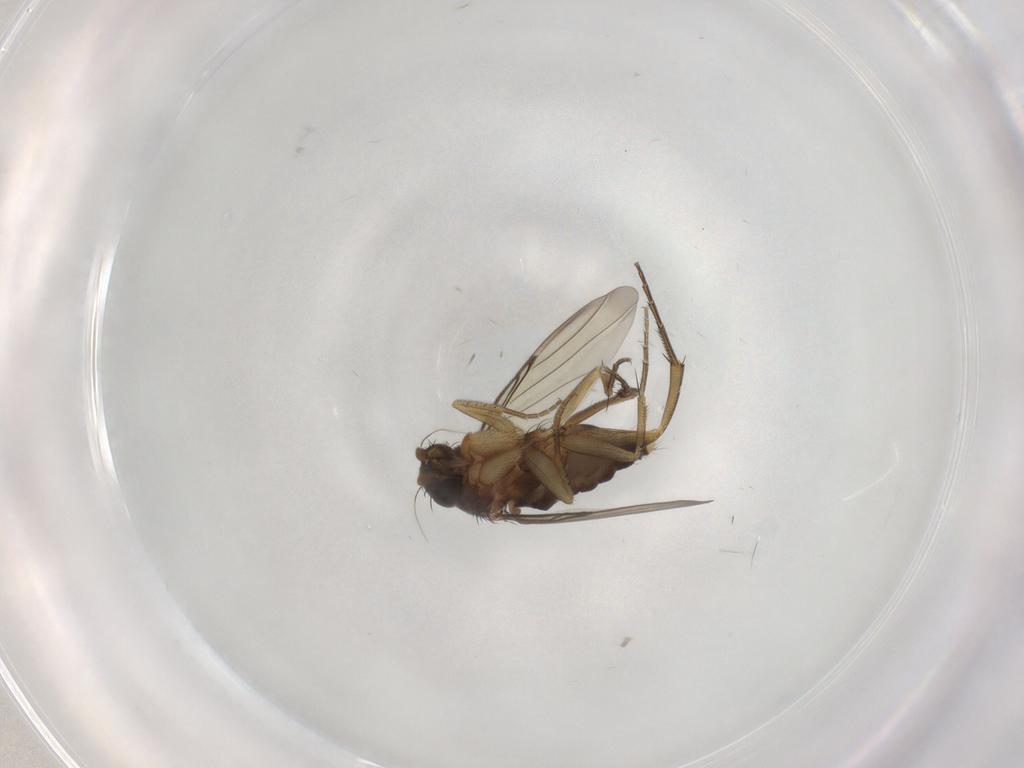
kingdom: Animalia
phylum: Arthropoda
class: Insecta
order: Diptera
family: Phoridae
